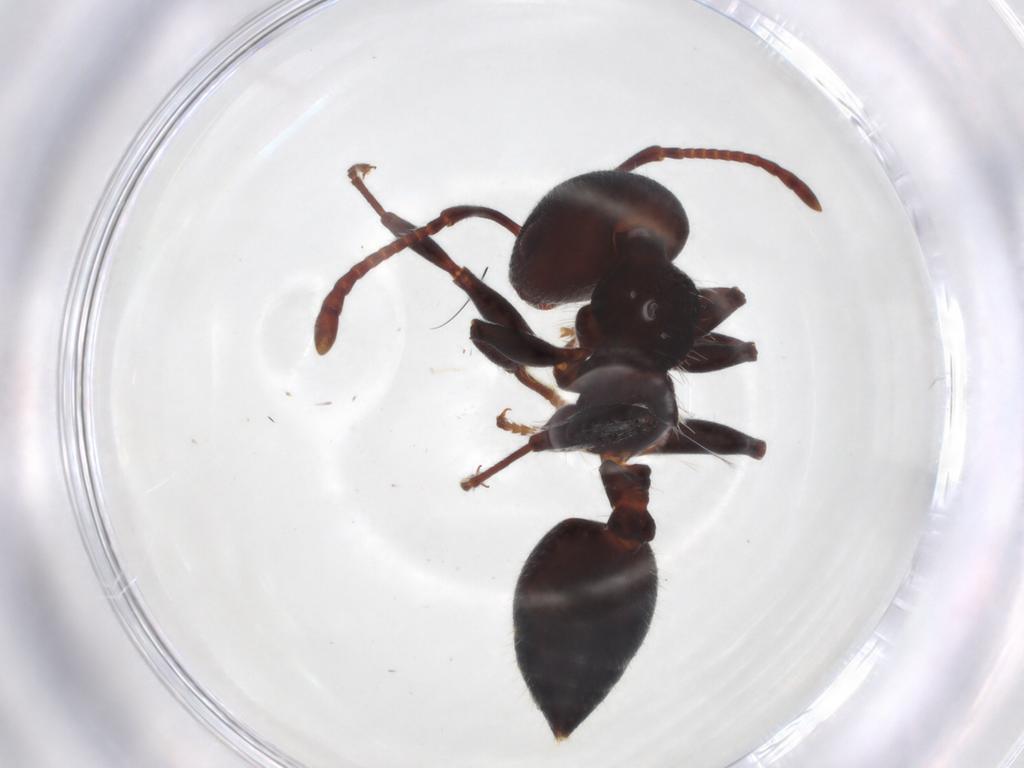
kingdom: Animalia
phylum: Arthropoda
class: Insecta
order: Hymenoptera
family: Formicidae
